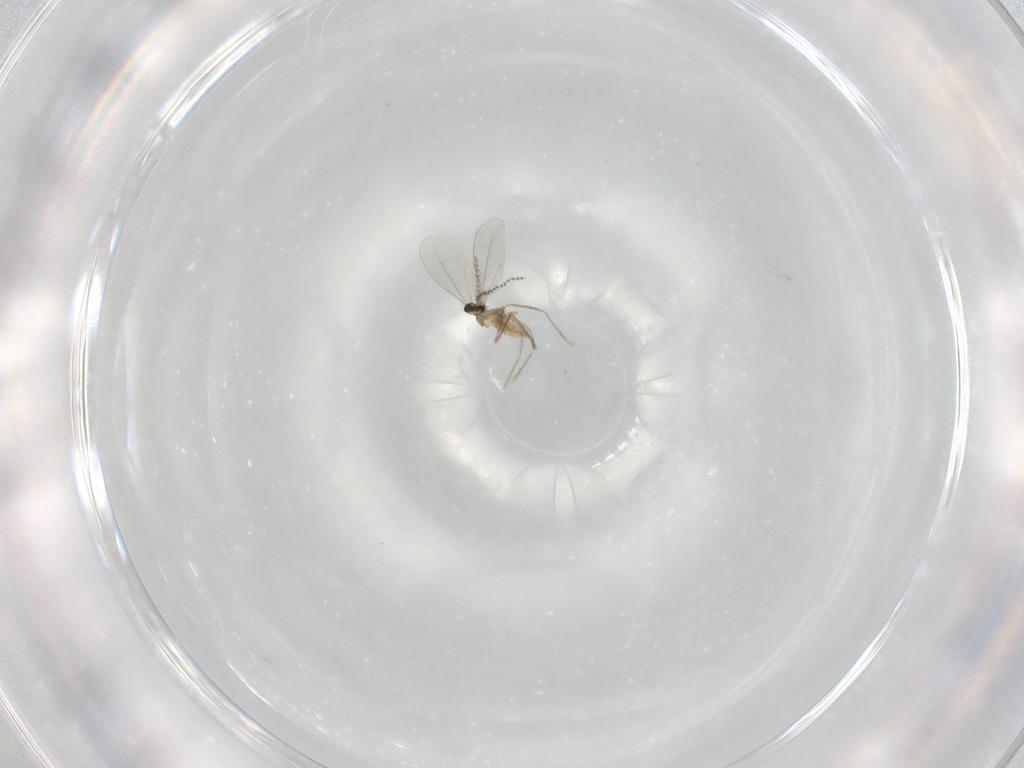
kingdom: Animalia
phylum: Arthropoda
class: Insecta
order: Diptera
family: Cecidomyiidae
